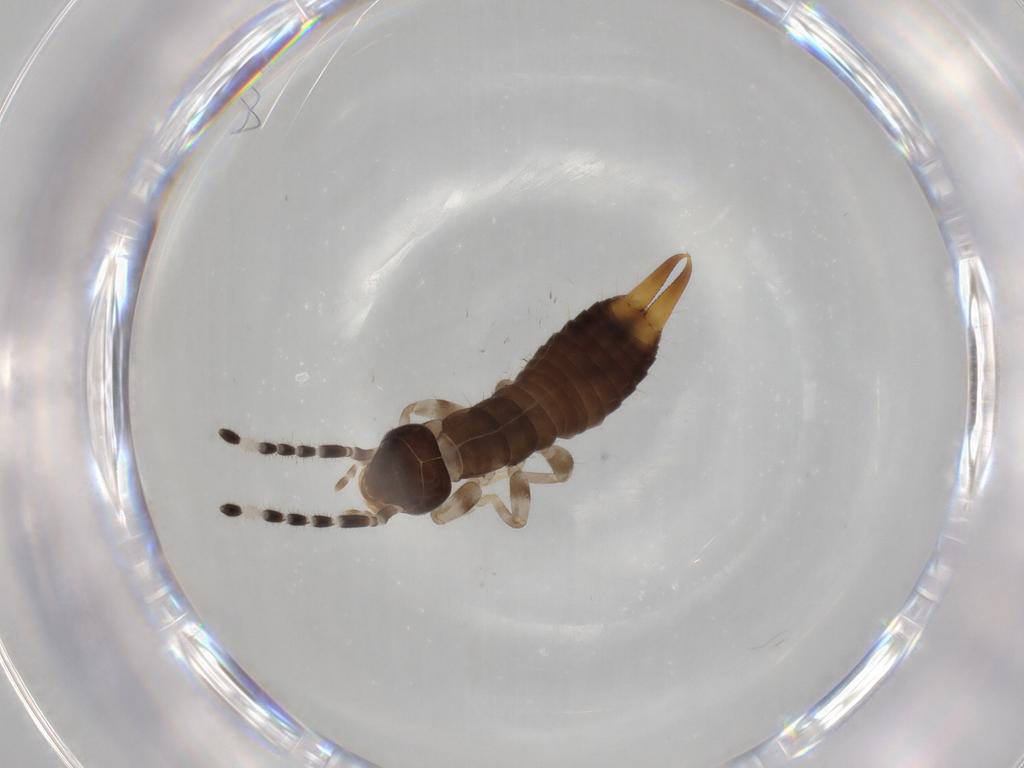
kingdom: Animalia
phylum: Arthropoda
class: Insecta
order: Dermaptera
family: Anisolabididae
